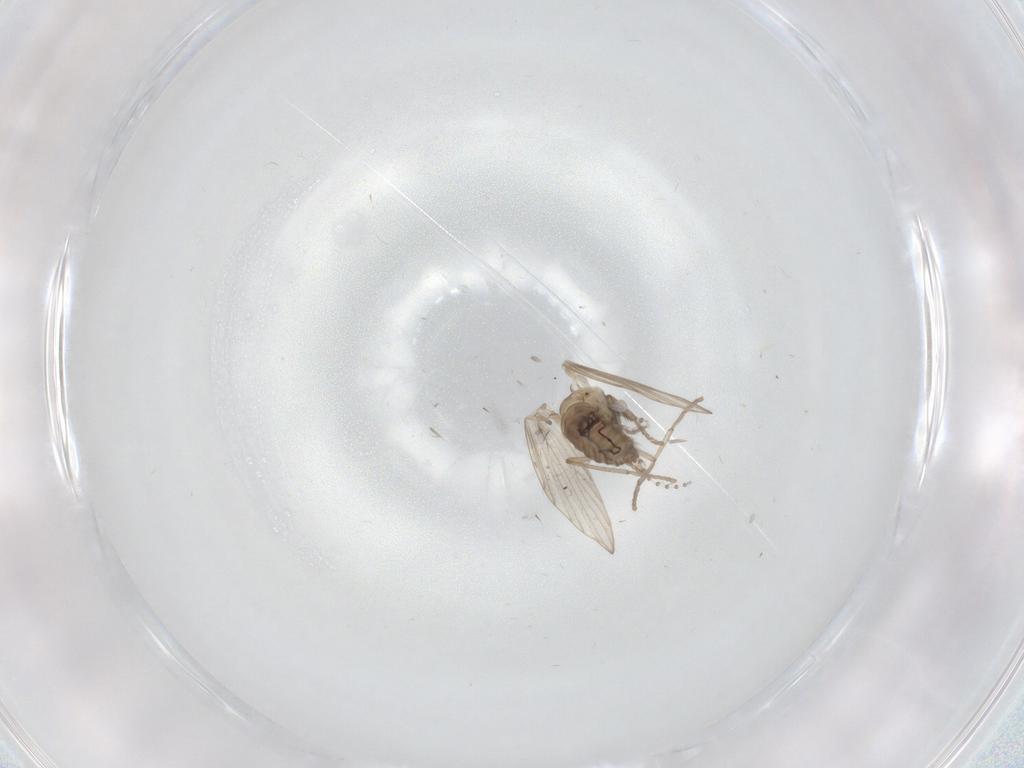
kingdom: Animalia
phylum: Arthropoda
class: Insecta
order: Diptera
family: Psychodidae
